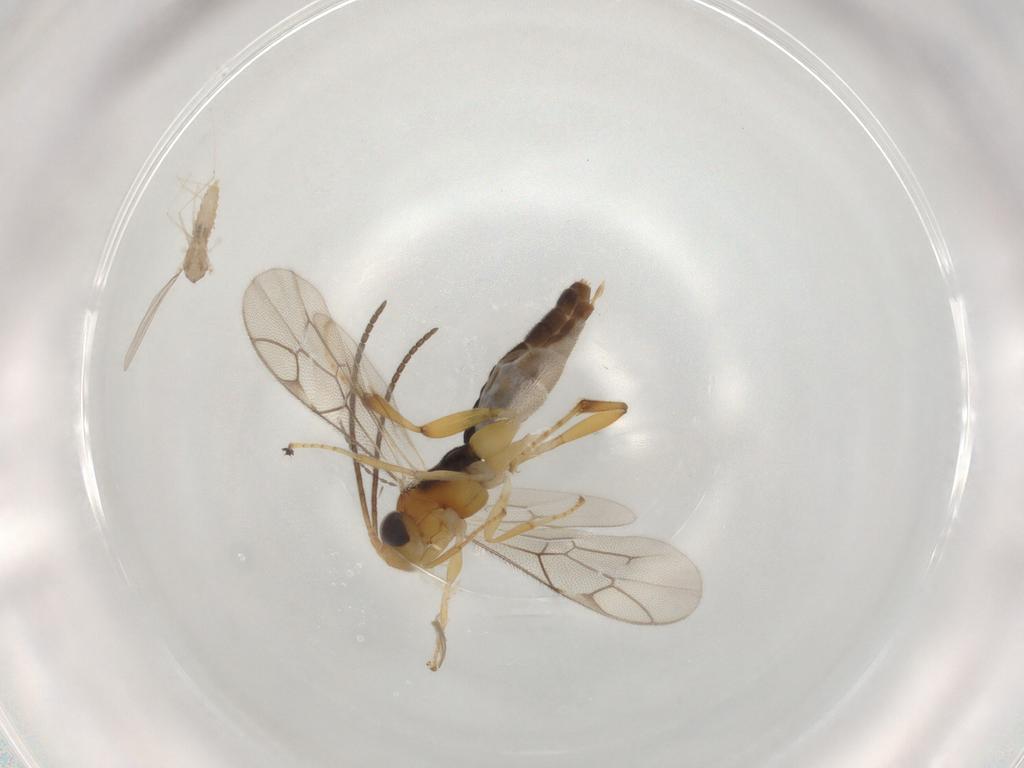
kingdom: Animalia
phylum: Arthropoda
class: Insecta
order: Hymenoptera
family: Ichneumonidae
